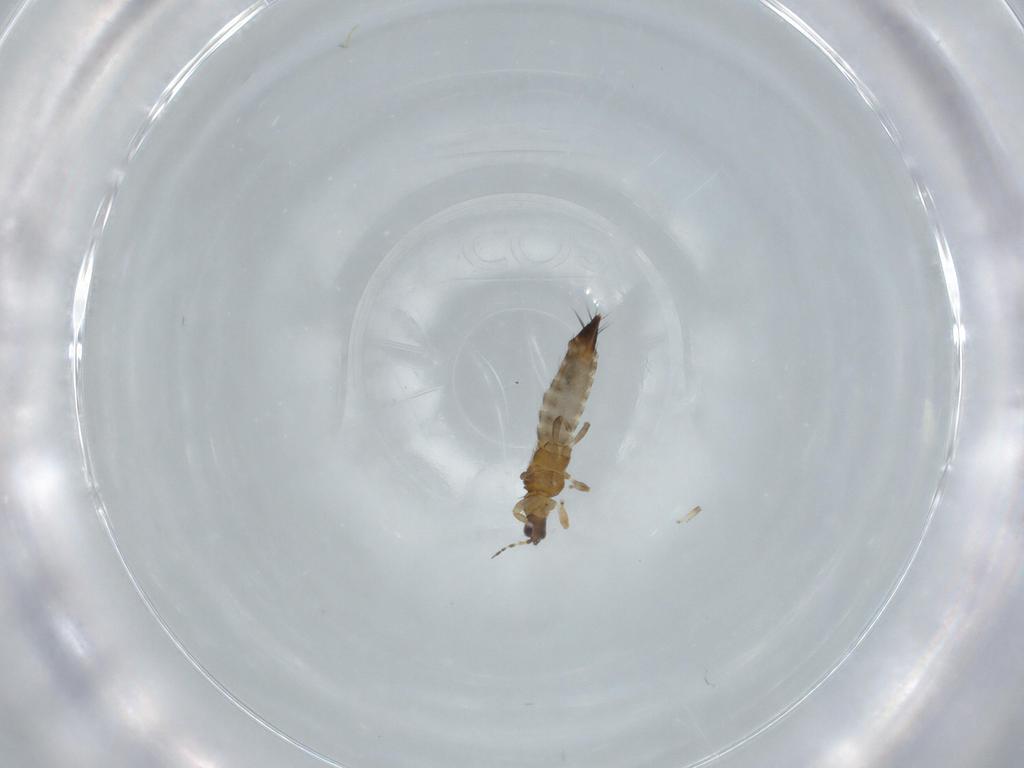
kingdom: Animalia
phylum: Arthropoda
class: Insecta
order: Thysanoptera
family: Thripidae
